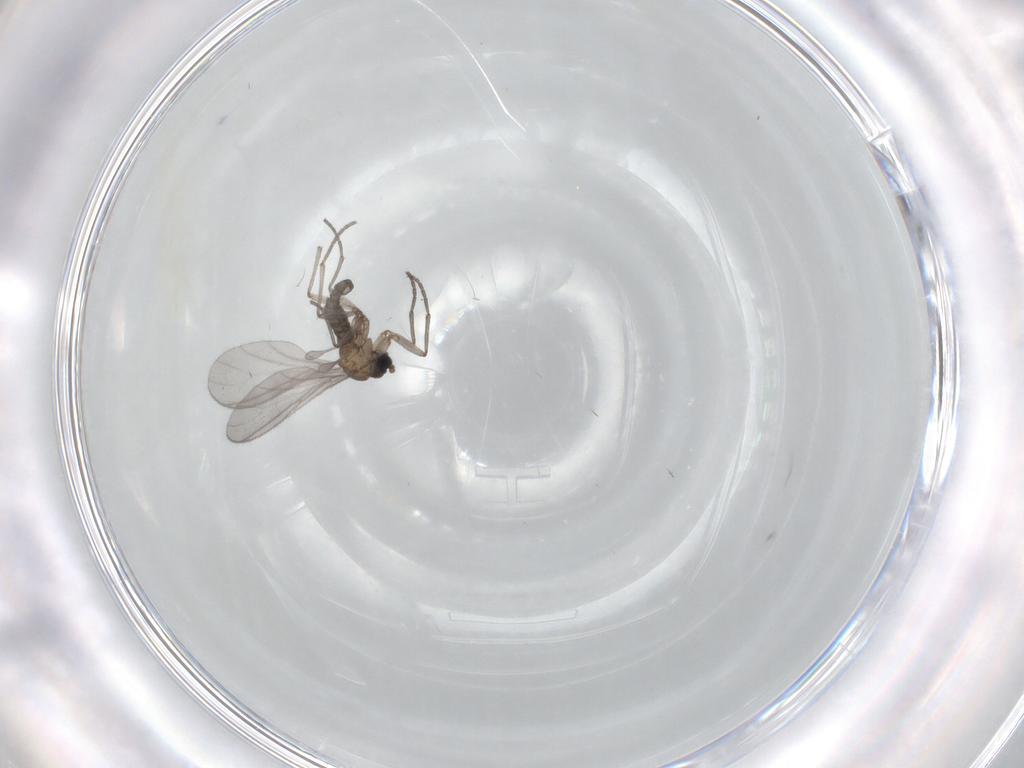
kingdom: Animalia
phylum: Arthropoda
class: Insecta
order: Diptera
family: Sciaridae
